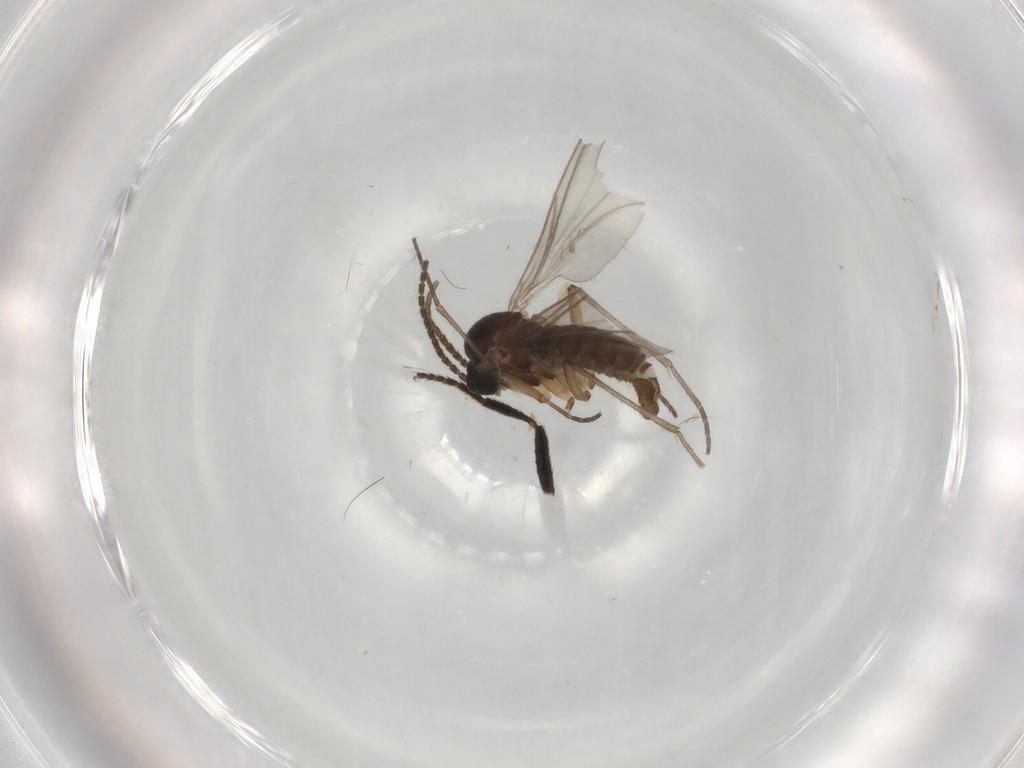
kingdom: Animalia
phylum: Arthropoda
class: Insecta
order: Diptera
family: Sciaridae
